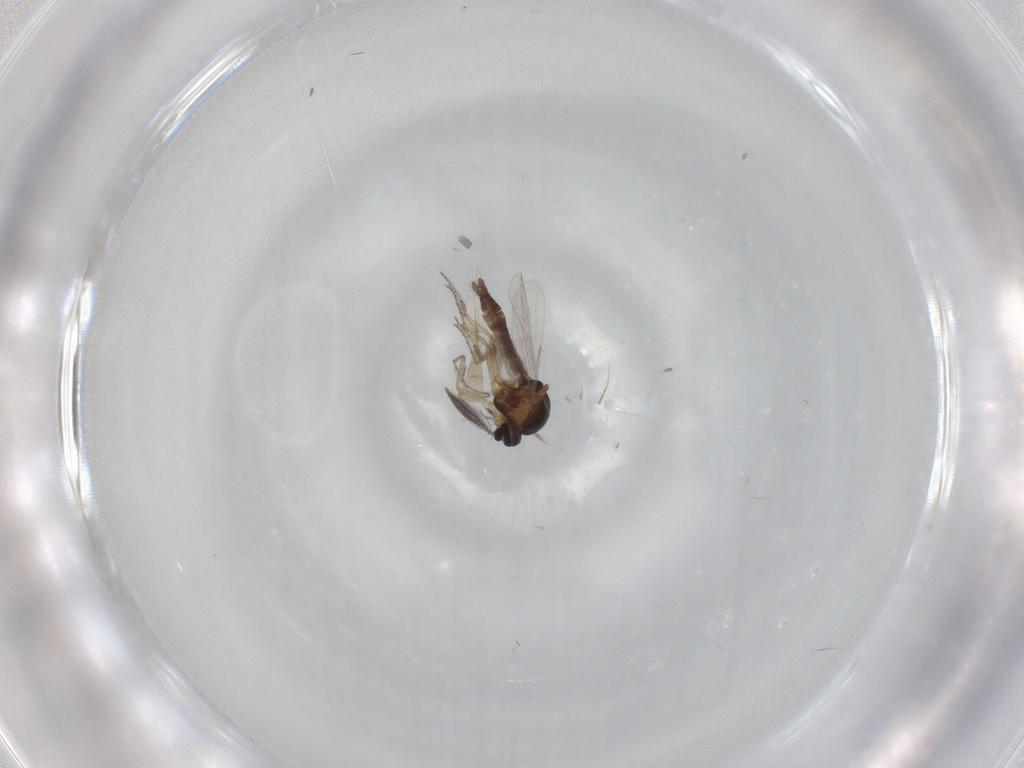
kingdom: Animalia
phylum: Arthropoda
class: Insecta
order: Diptera
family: Ceratopogonidae
